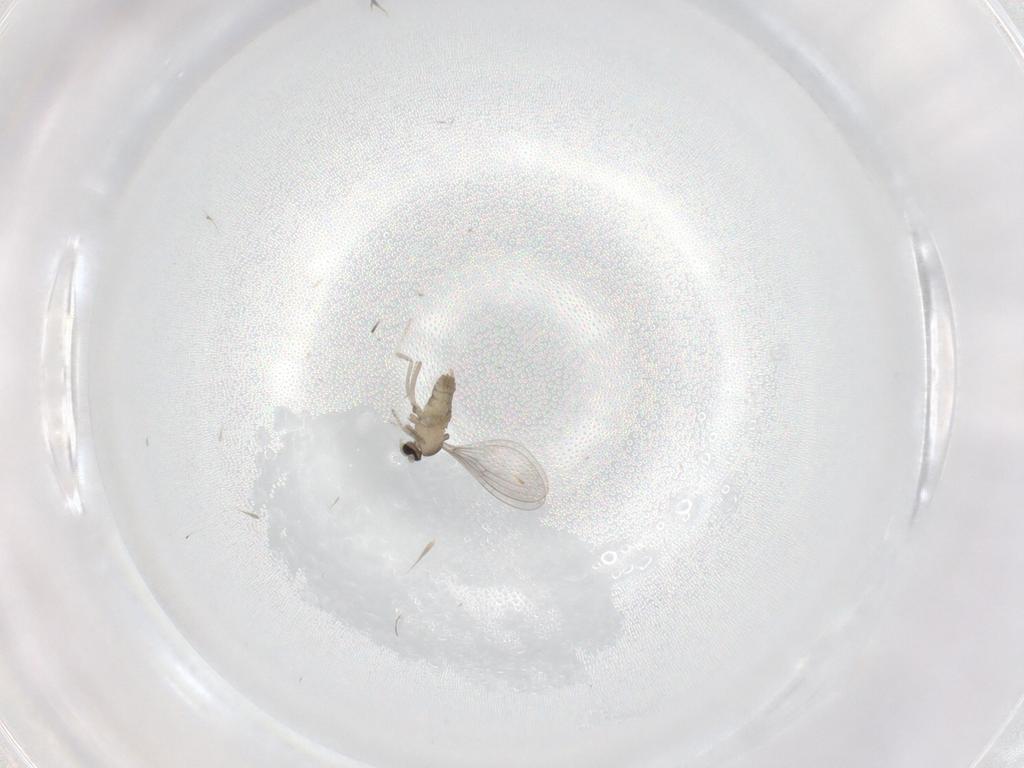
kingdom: Animalia
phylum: Arthropoda
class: Insecta
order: Diptera
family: Cecidomyiidae
